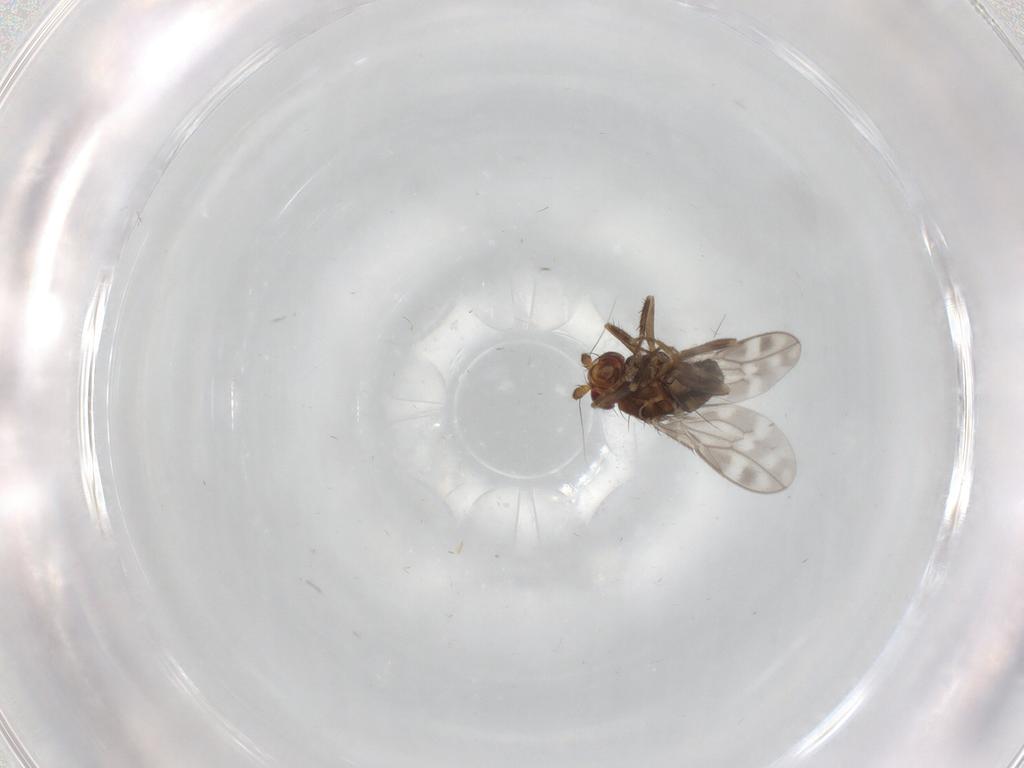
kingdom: Animalia
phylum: Arthropoda
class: Insecta
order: Diptera
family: Sphaeroceridae
